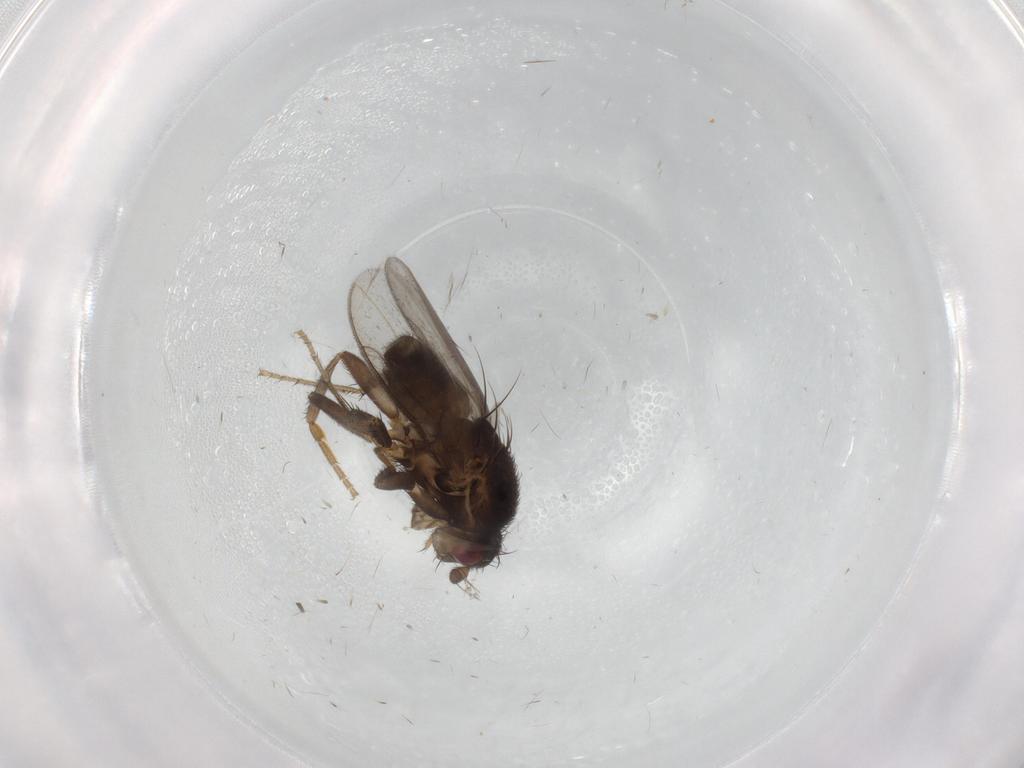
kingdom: Animalia
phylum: Arthropoda
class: Insecta
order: Diptera
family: Sphaeroceridae
